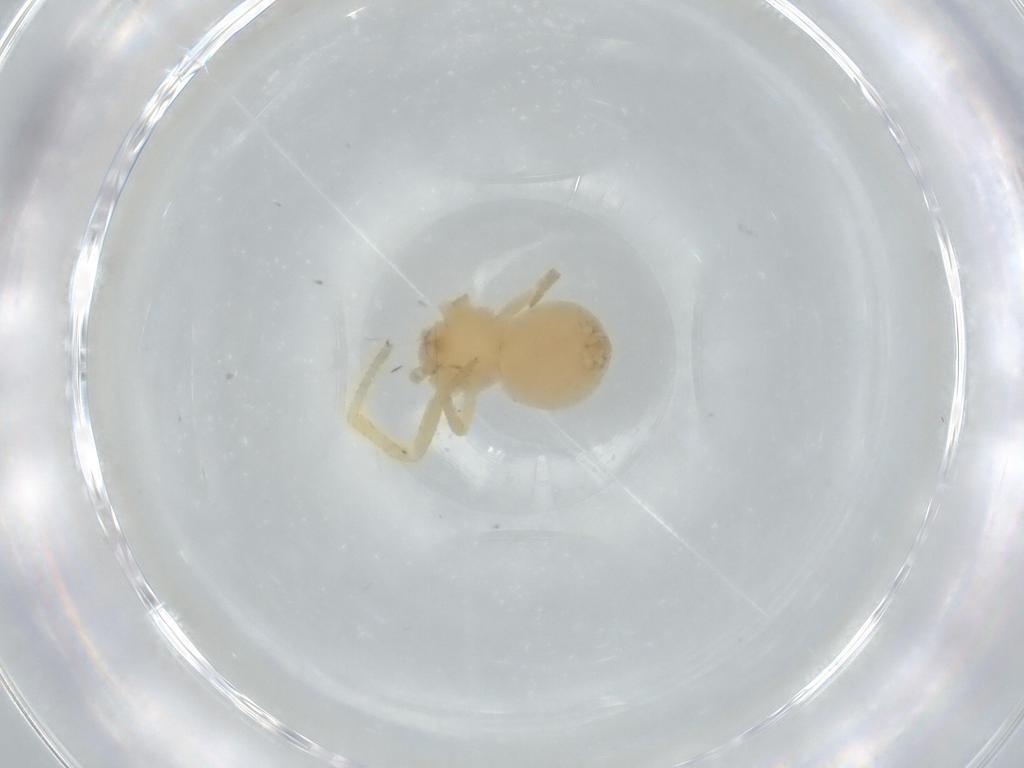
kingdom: Animalia
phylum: Arthropoda
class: Arachnida
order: Araneae
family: Thomisidae
